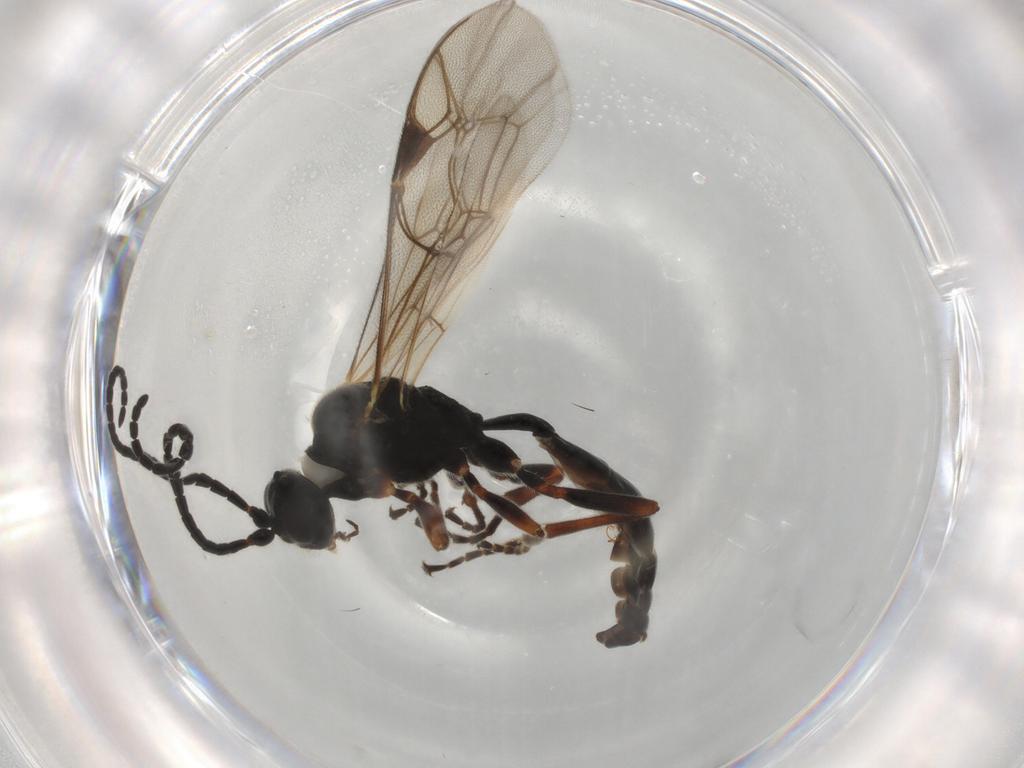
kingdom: Animalia
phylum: Arthropoda
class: Insecta
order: Hymenoptera
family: Ichneumonidae
